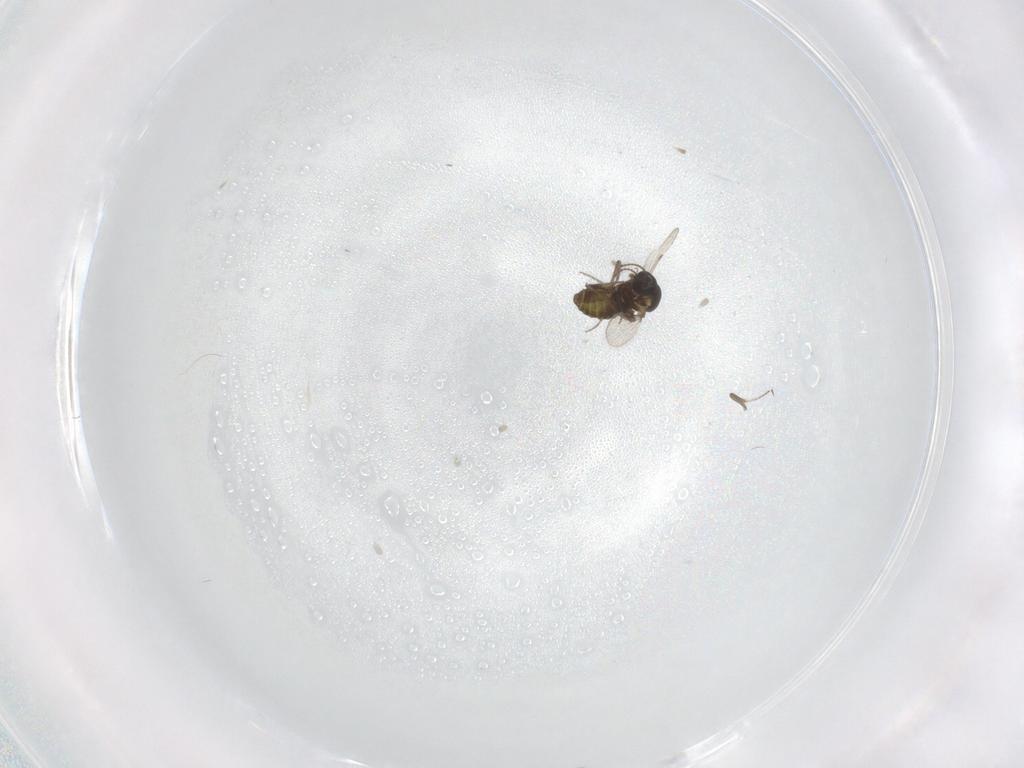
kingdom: Animalia
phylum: Arthropoda
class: Insecta
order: Diptera
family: Ceratopogonidae
